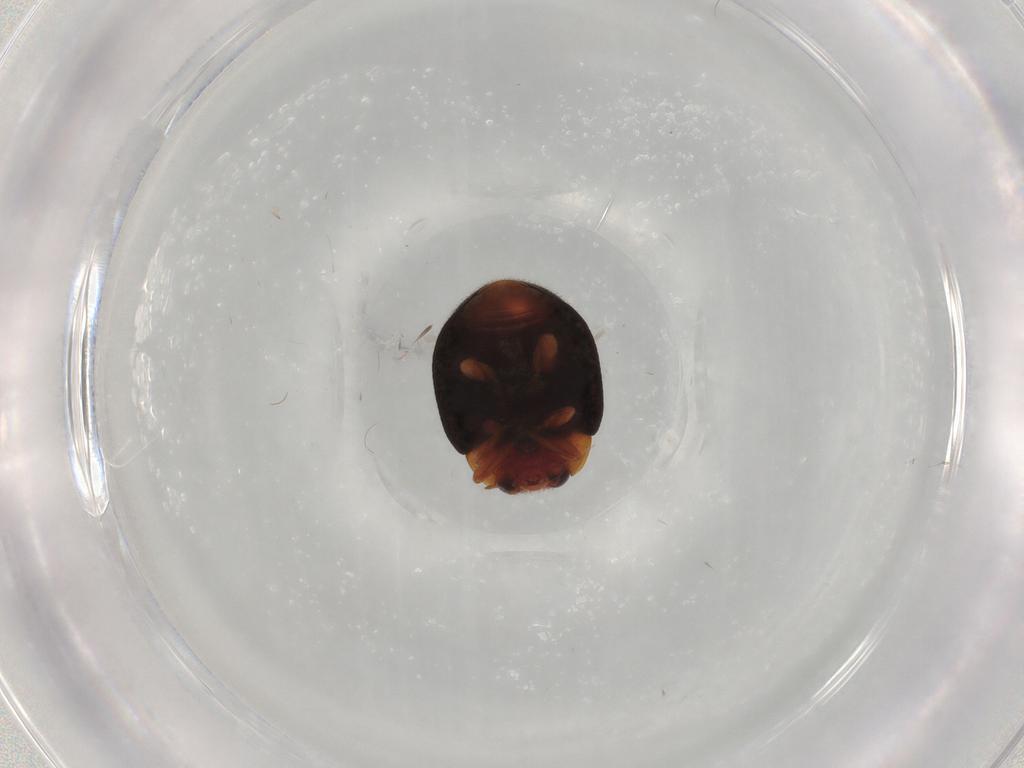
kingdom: Animalia
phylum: Arthropoda
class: Insecta
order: Coleoptera
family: Coccinellidae
